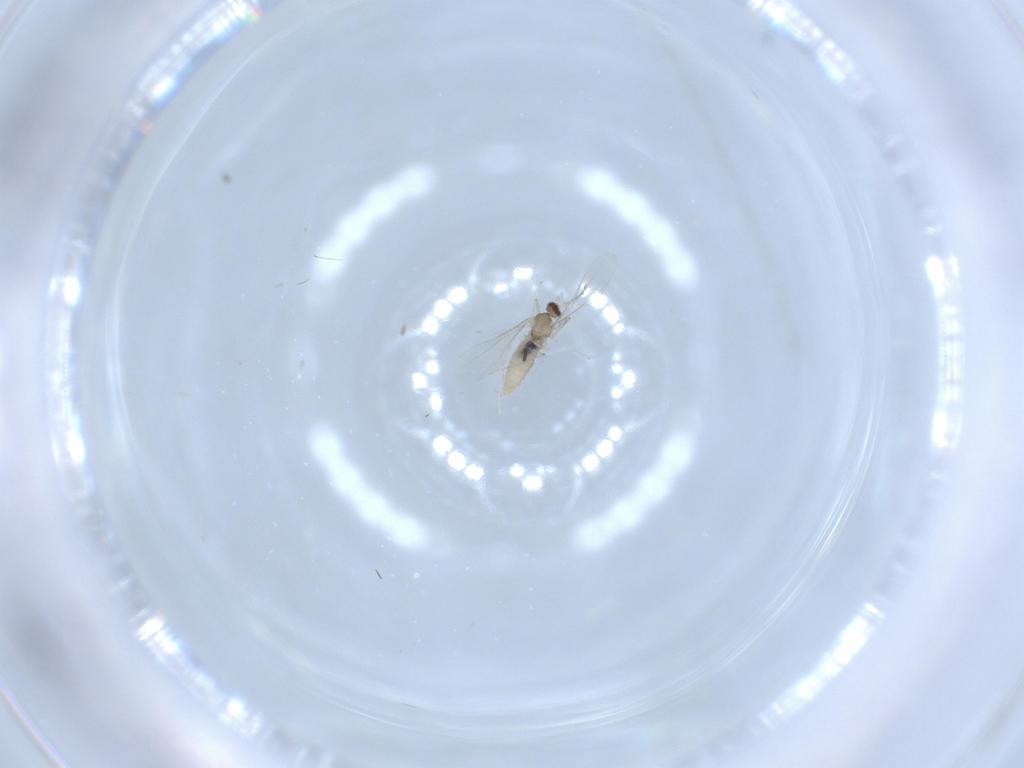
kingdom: Animalia
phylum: Arthropoda
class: Insecta
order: Diptera
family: Cecidomyiidae
